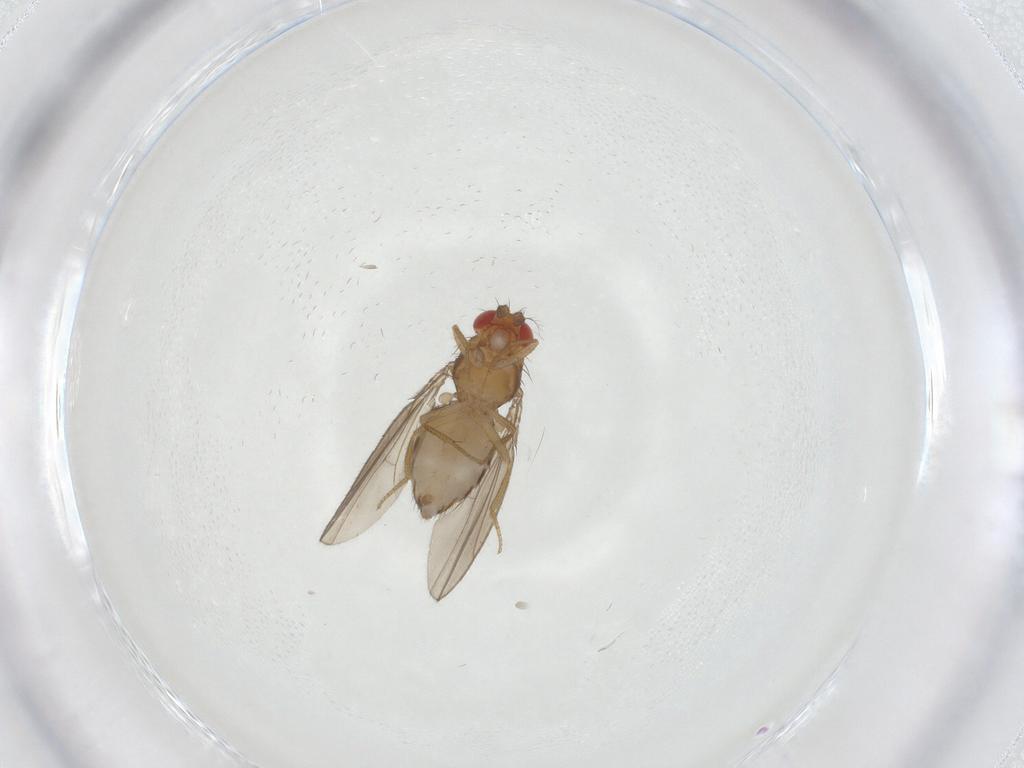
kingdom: Animalia
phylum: Arthropoda
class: Insecta
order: Diptera
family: Drosophilidae
